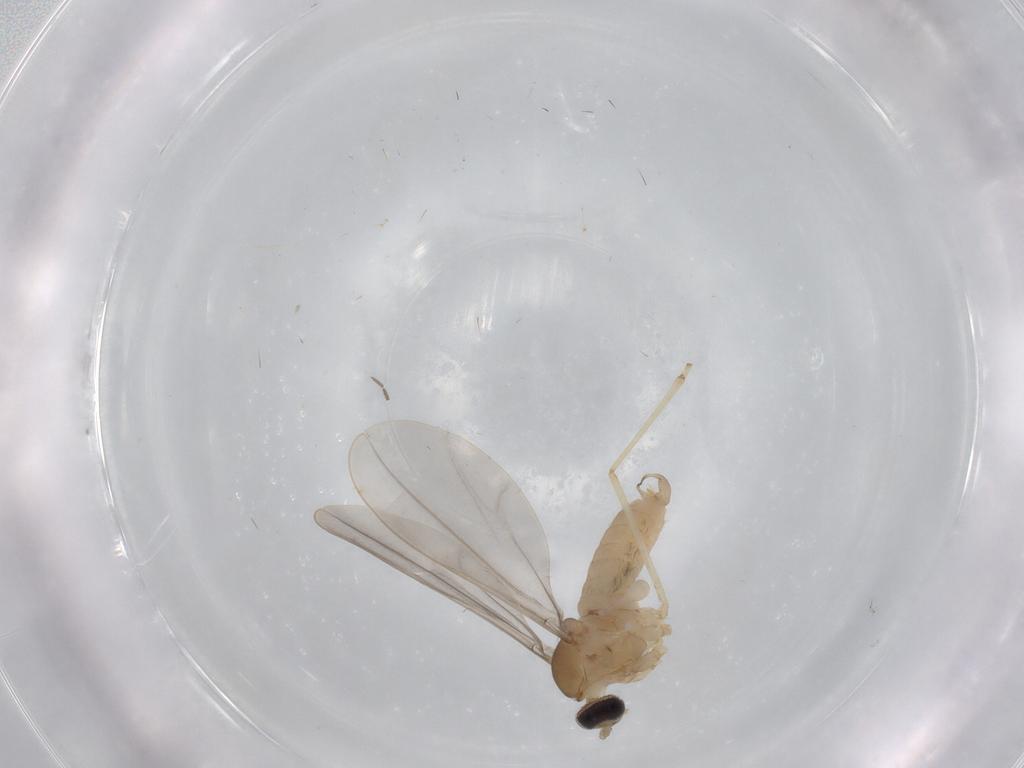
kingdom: Animalia
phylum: Arthropoda
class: Insecta
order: Diptera
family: Cecidomyiidae
